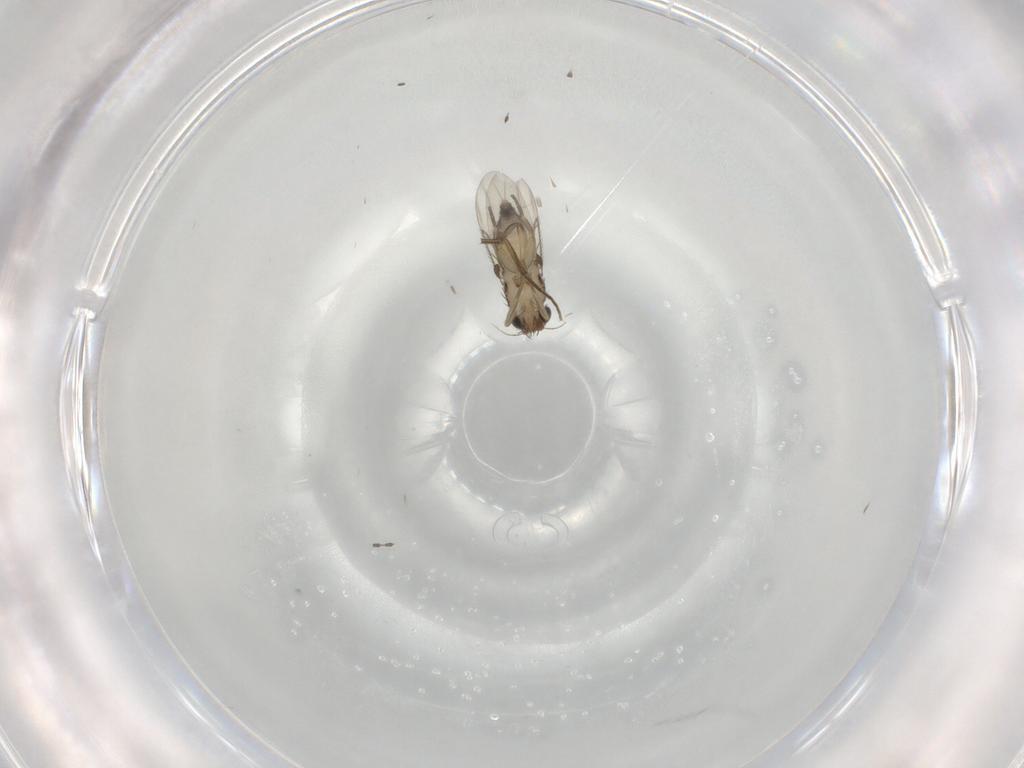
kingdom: Animalia
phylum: Arthropoda
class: Insecta
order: Diptera
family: Phoridae
